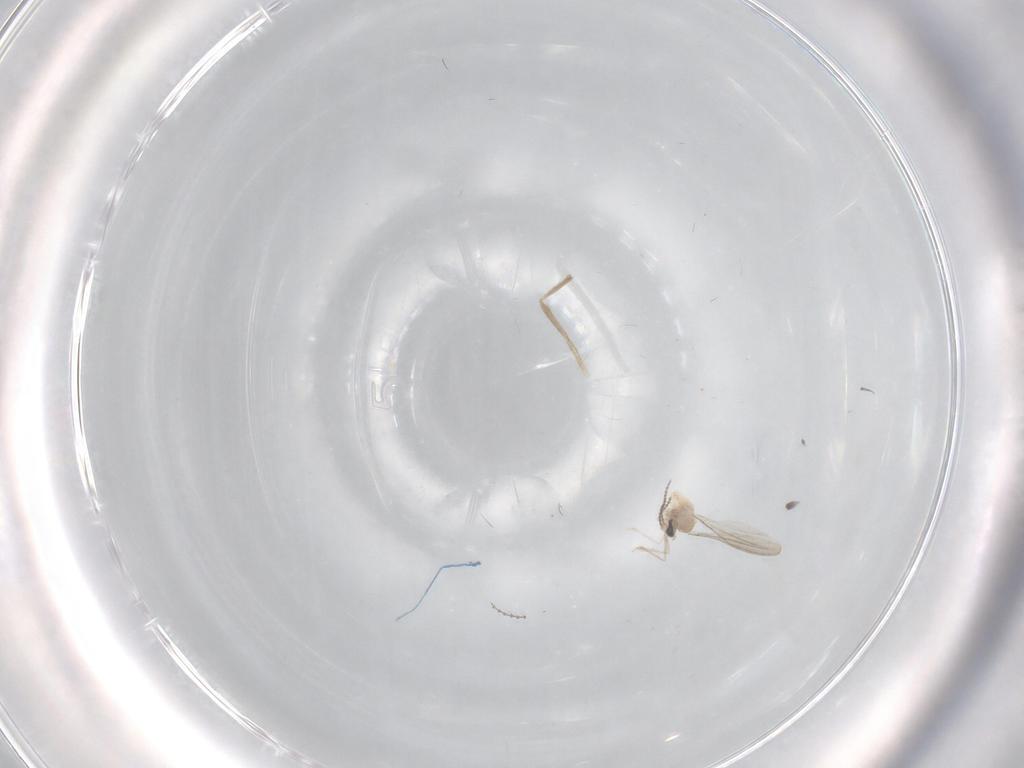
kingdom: Animalia
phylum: Arthropoda
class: Insecta
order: Diptera
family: Chironomidae
